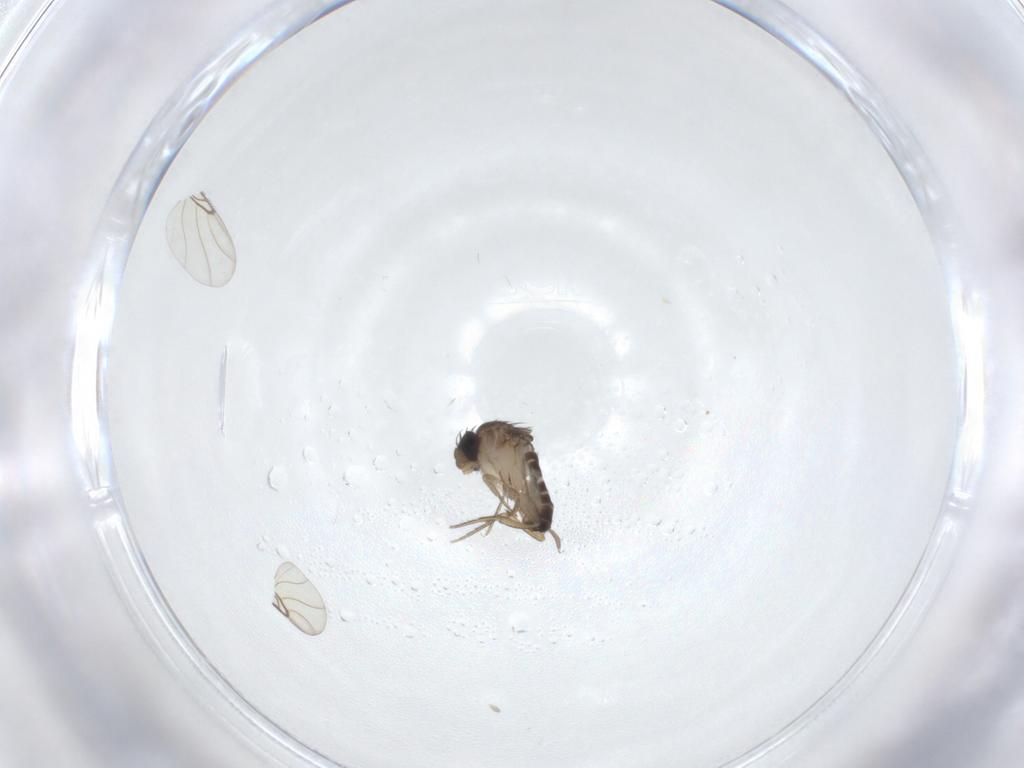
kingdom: Animalia
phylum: Arthropoda
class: Insecta
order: Diptera
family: Phoridae
